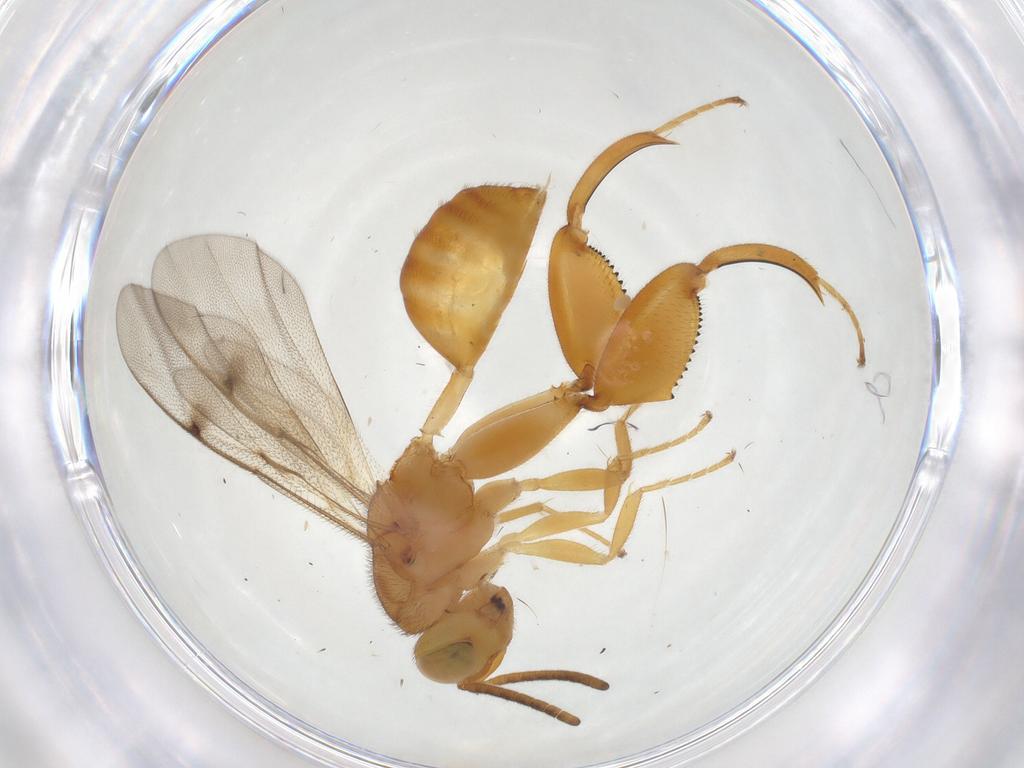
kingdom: Animalia
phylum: Arthropoda
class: Insecta
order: Hymenoptera
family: Chalcididae
